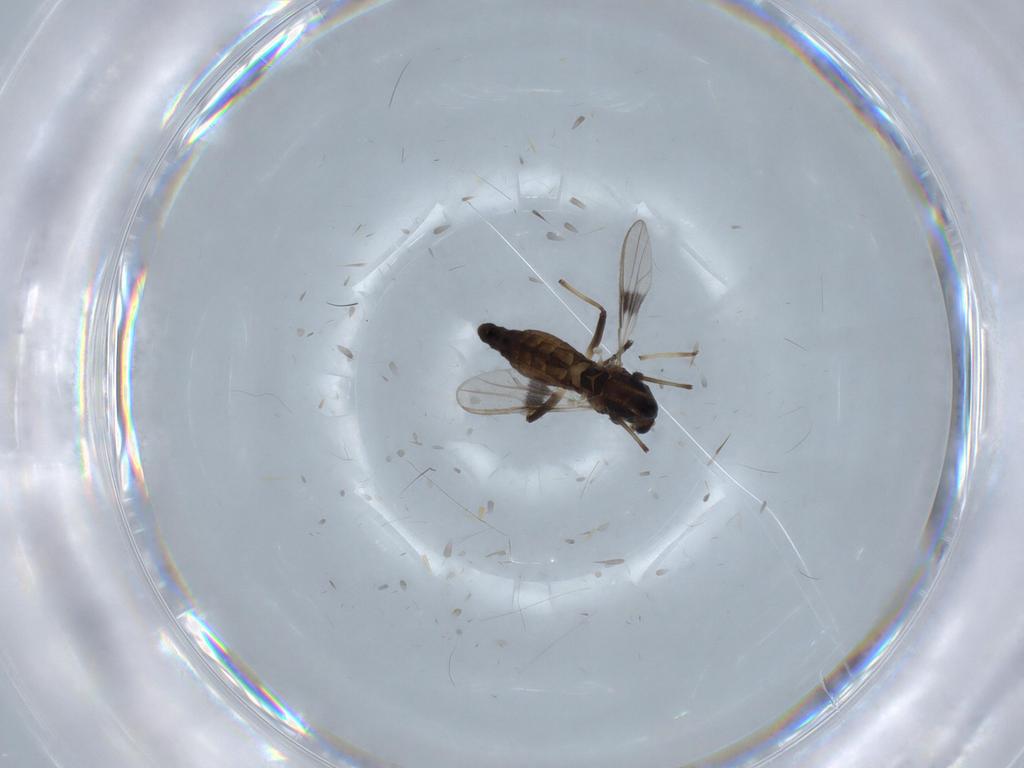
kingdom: Animalia
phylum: Arthropoda
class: Insecta
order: Diptera
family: Chironomidae
